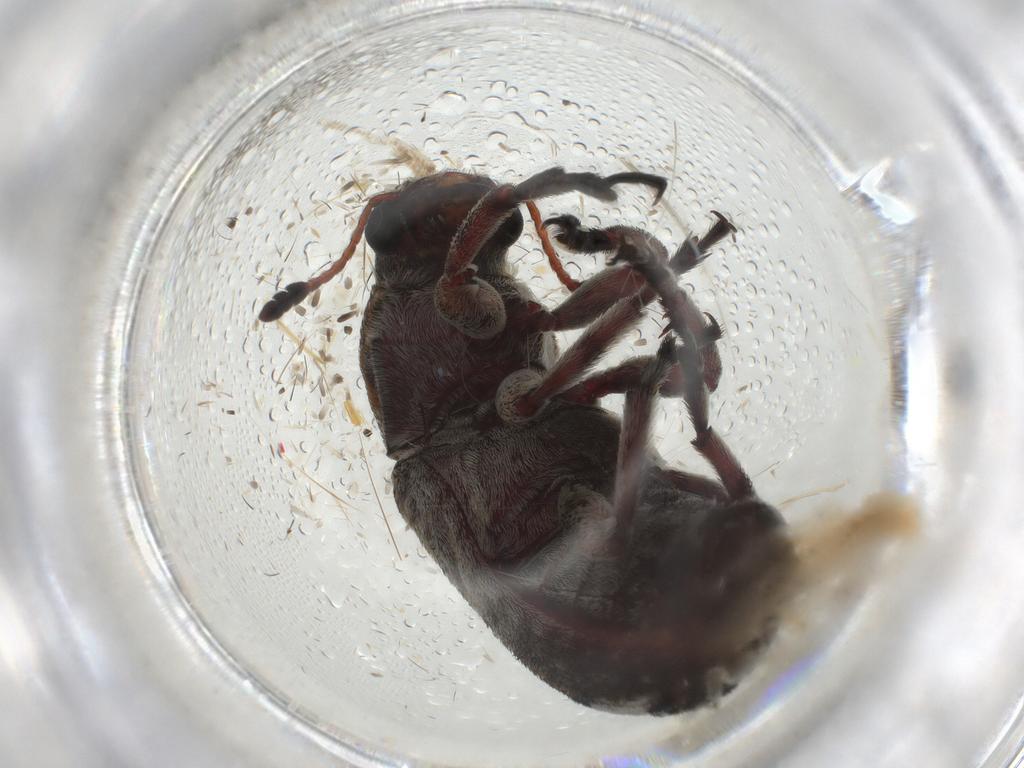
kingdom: Animalia
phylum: Arthropoda
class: Insecta
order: Coleoptera
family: Anthribidae
